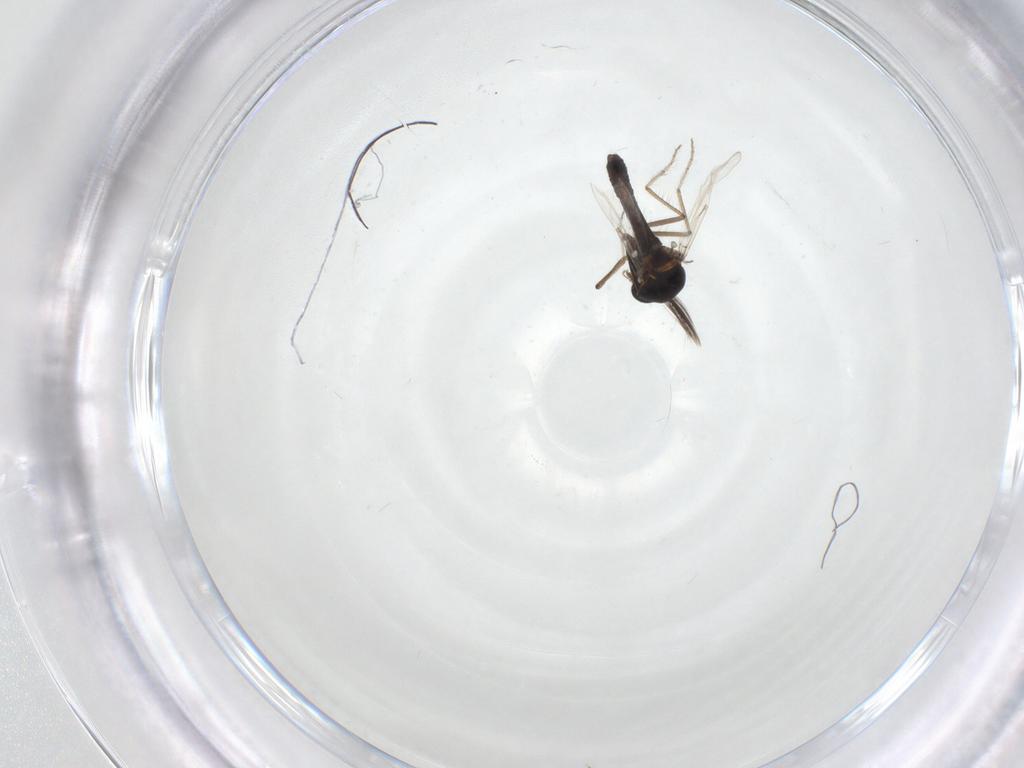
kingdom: Animalia
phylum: Arthropoda
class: Insecta
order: Diptera
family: Ceratopogonidae
